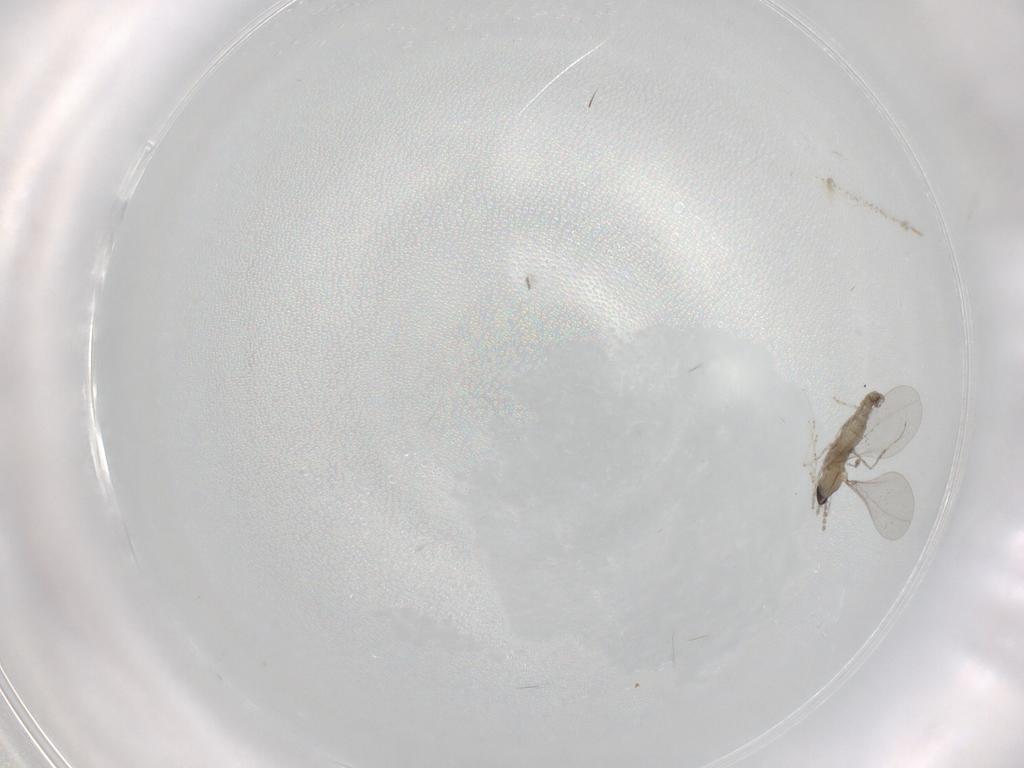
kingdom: Animalia
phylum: Arthropoda
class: Insecta
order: Diptera
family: Cecidomyiidae
